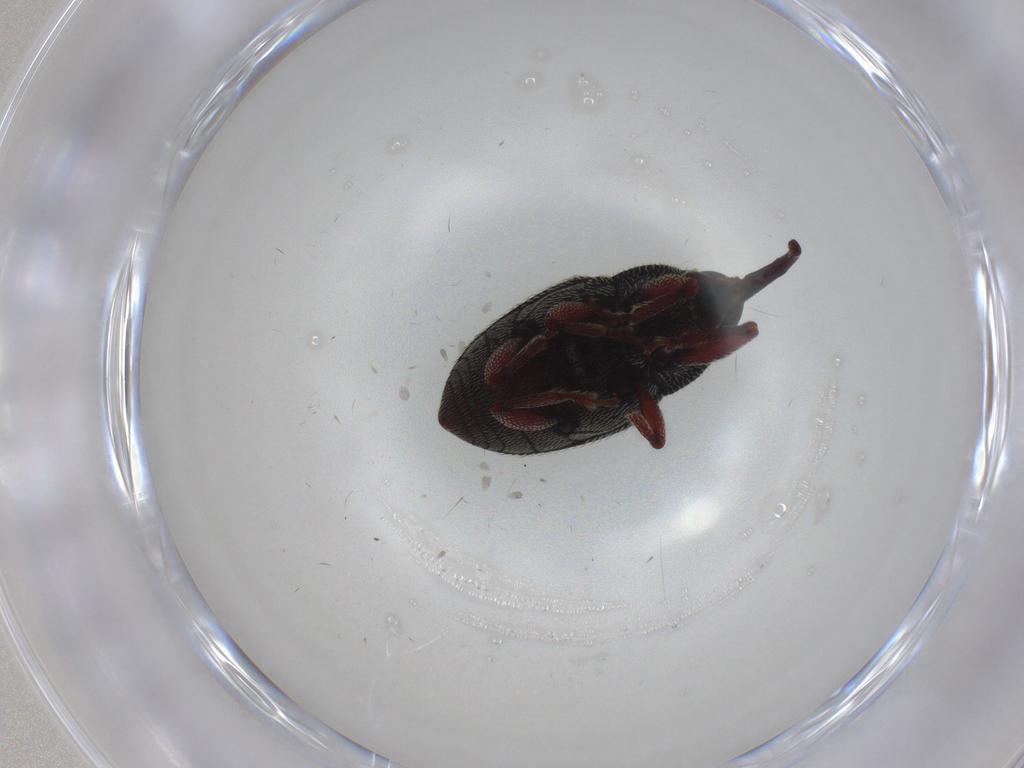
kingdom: Animalia
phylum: Arthropoda
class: Insecta
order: Coleoptera
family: Curculionidae
